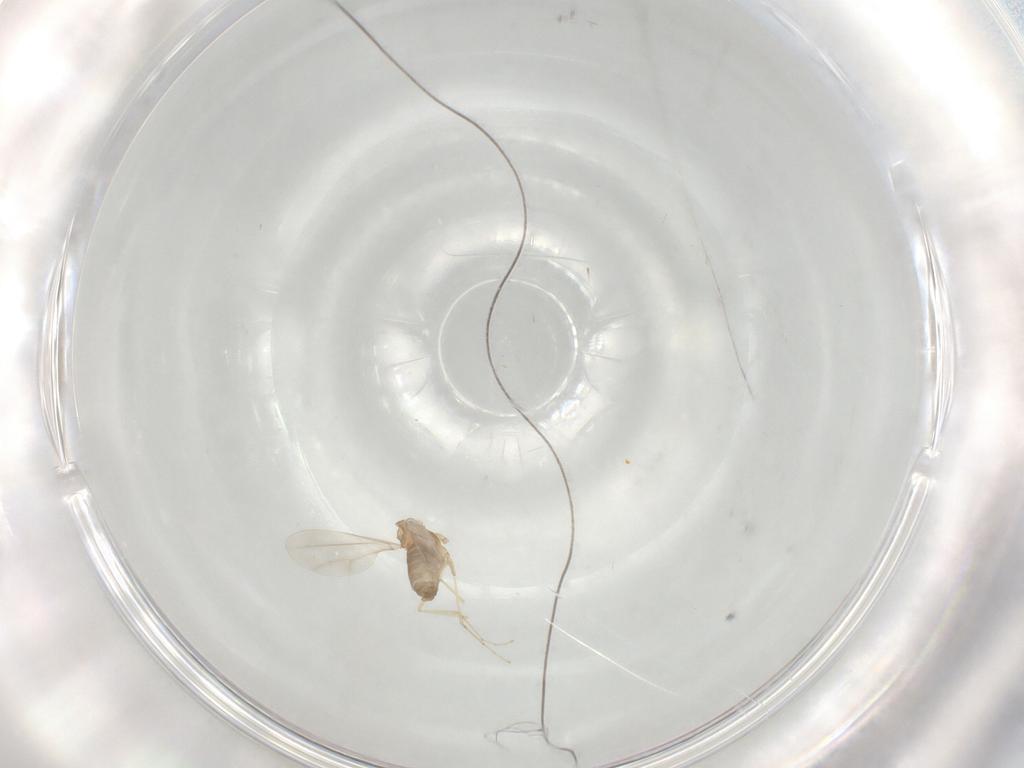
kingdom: Animalia
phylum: Arthropoda
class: Insecta
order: Diptera
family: Cecidomyiidae
